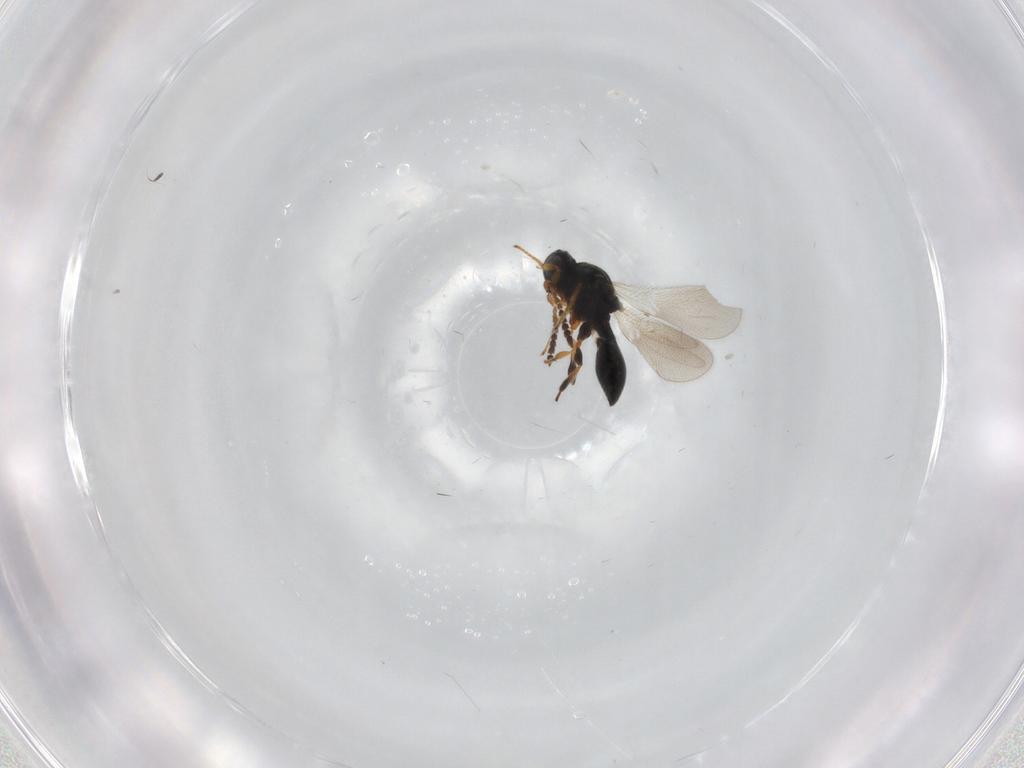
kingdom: Animalia
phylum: Arthropoda
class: Insecta
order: Hymenoptera
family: Platygastridae
